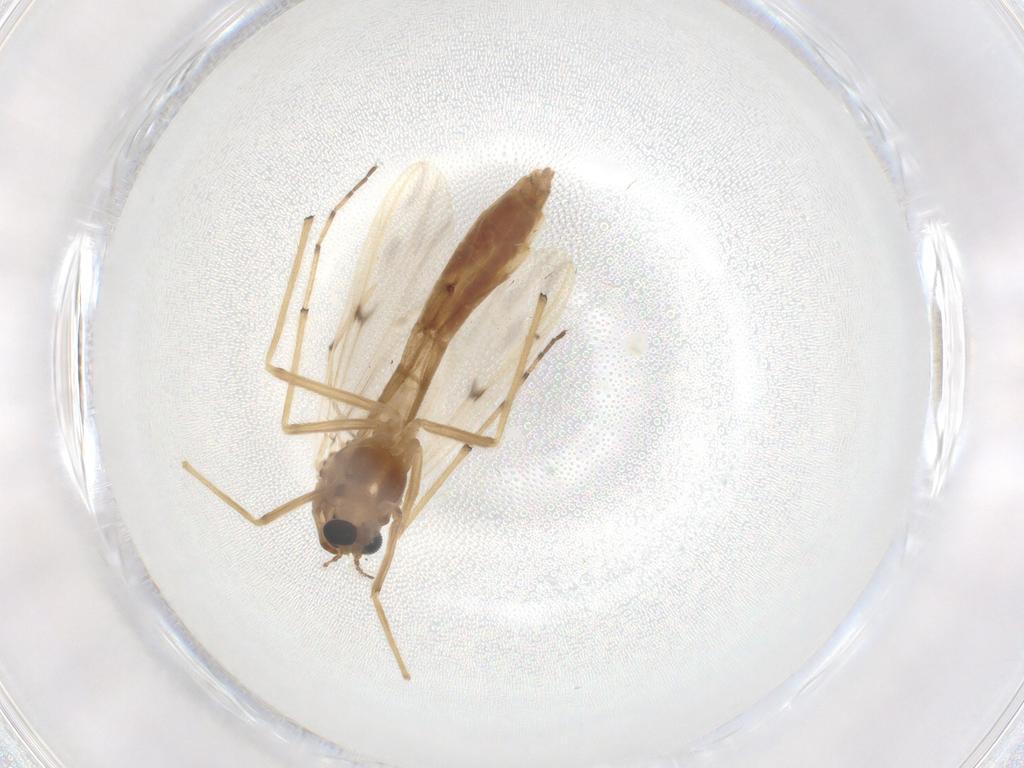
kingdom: Animalia
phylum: Arthropoda
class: Insecta
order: Diptera
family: Chironomidae
